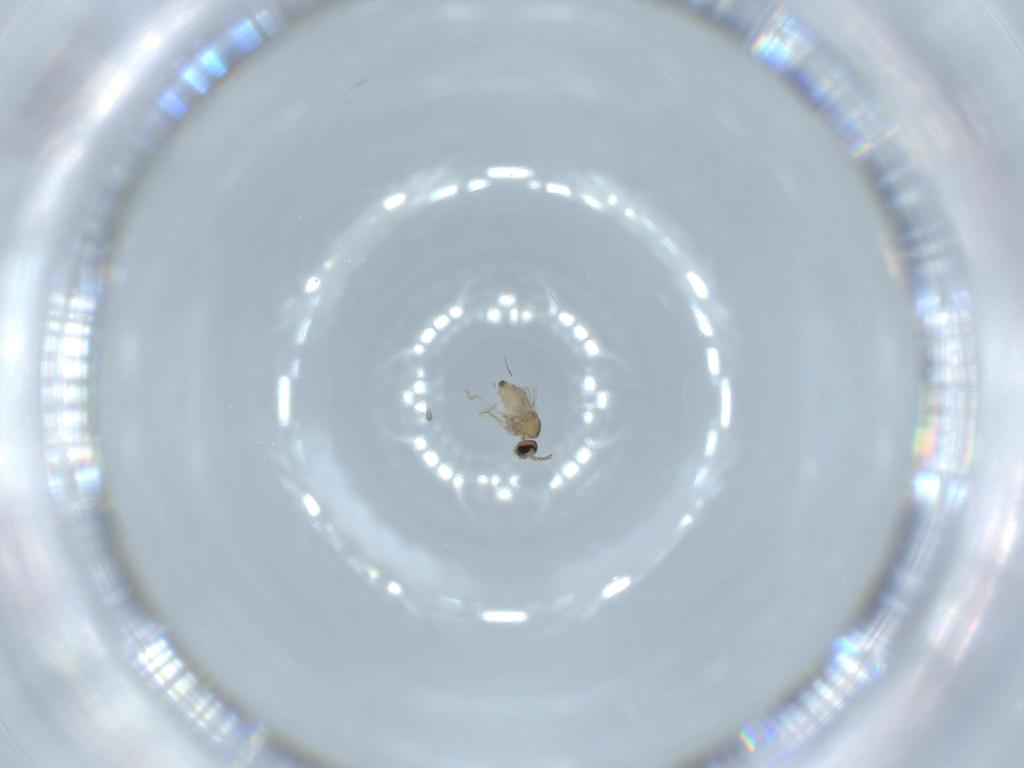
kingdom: Animalia
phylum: Arthropoda
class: Insecta
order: Diptera
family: Cecidomyiidae
